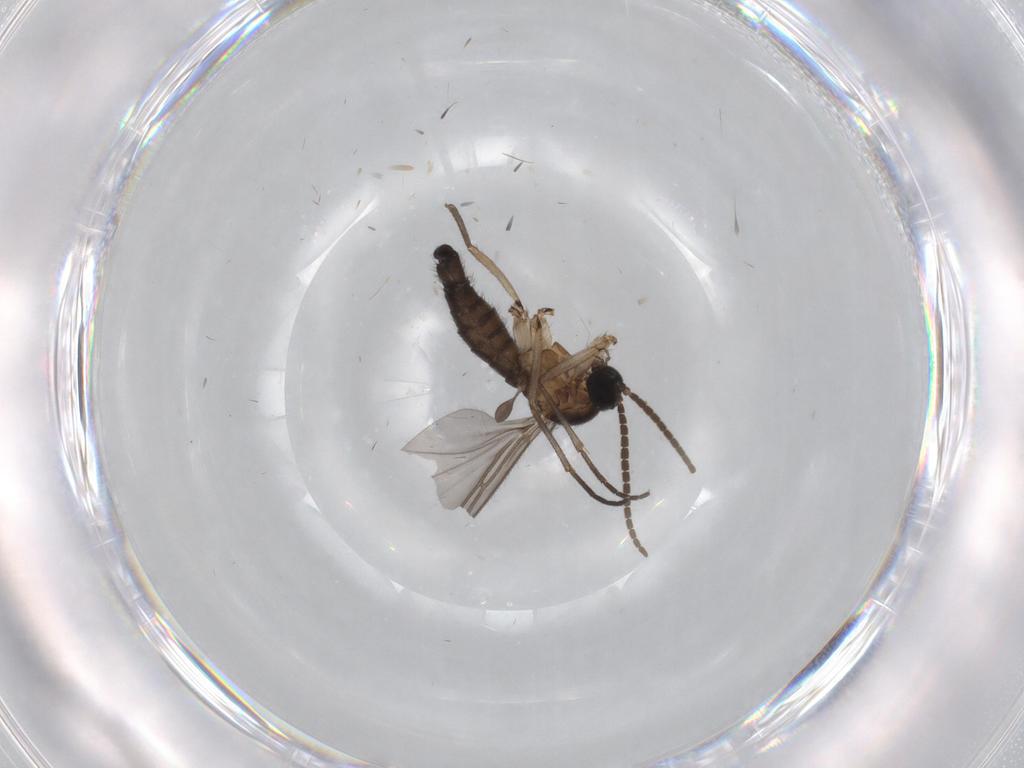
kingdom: Animalia
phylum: Arthropoda
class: Insecta
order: Diptera
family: Cecidomyiidae
